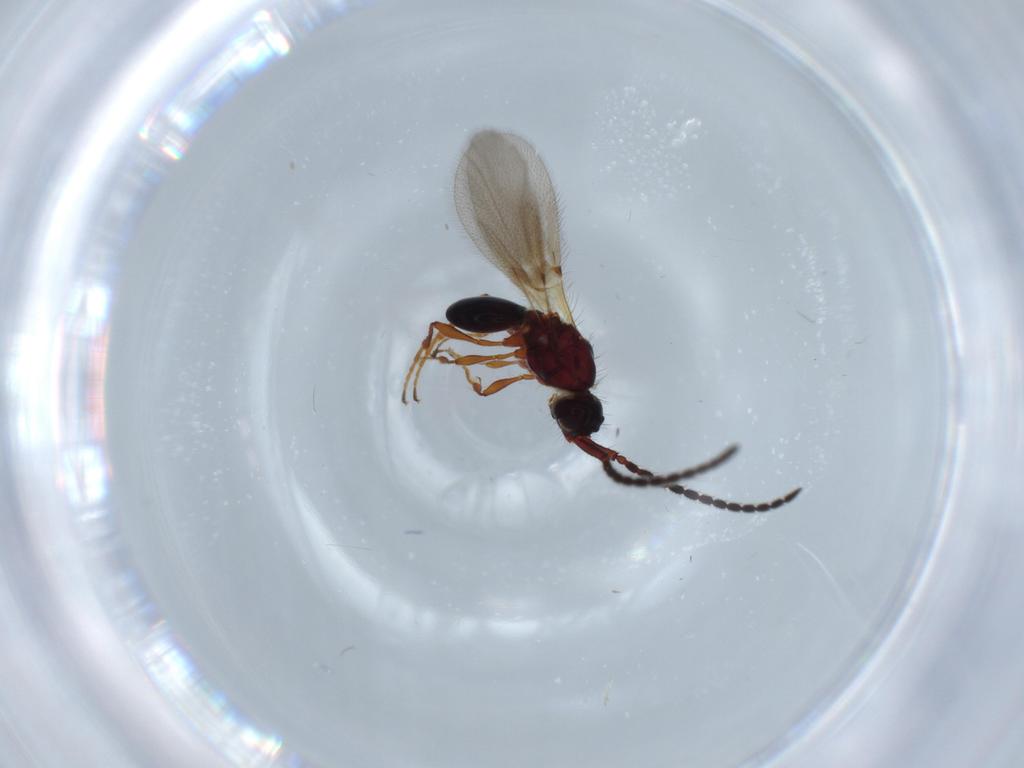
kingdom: Animalia
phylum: Arthropoda
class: Insecta
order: Hymenoptera
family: Diapriidae
